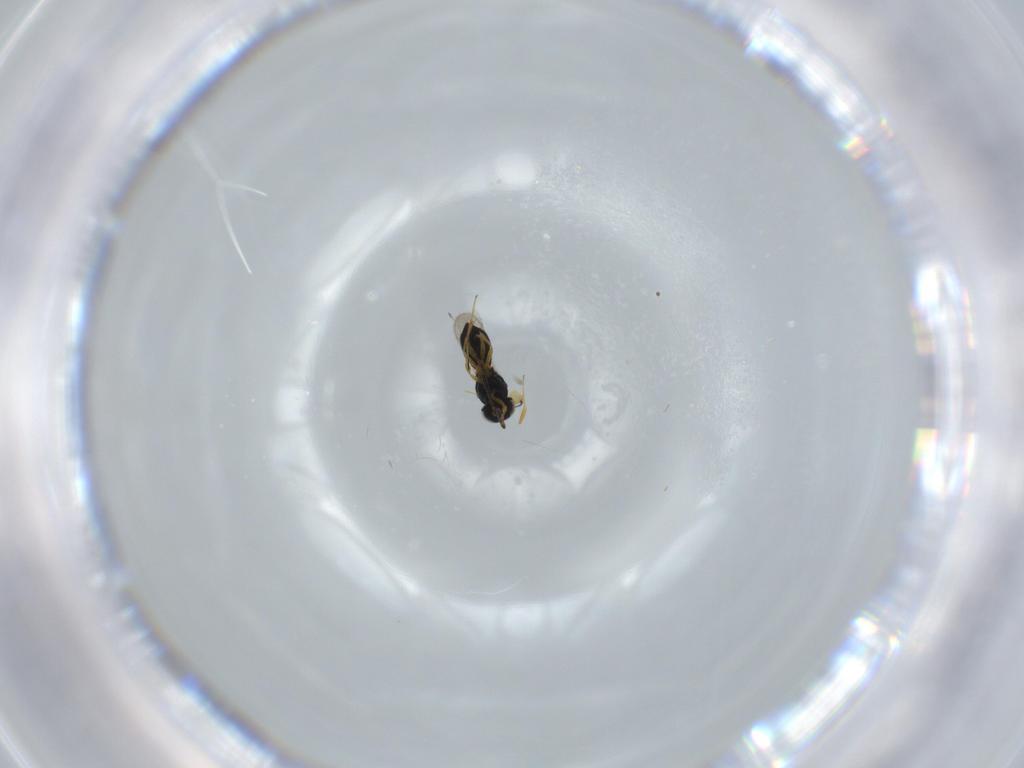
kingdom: Animalia
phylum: Arthropoda
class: Insecta
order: Hymenoptera
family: Scelionidae
